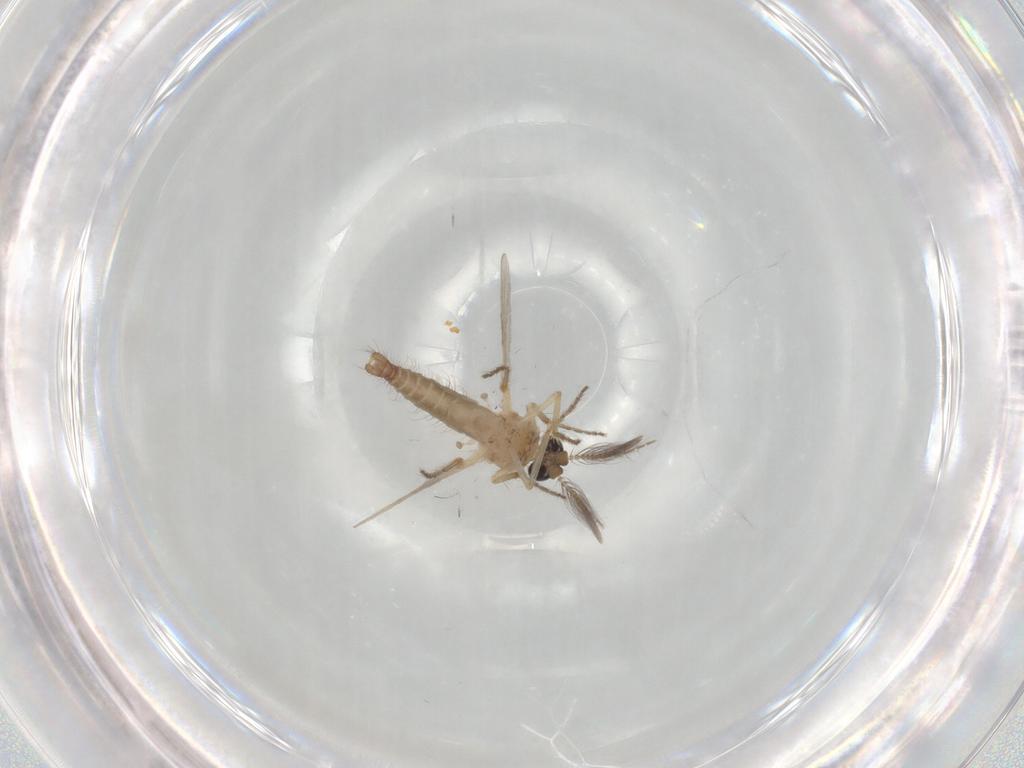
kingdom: Animalia
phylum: Arthropoda
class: Insecta
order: Diptera
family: Ceratopogonidae
